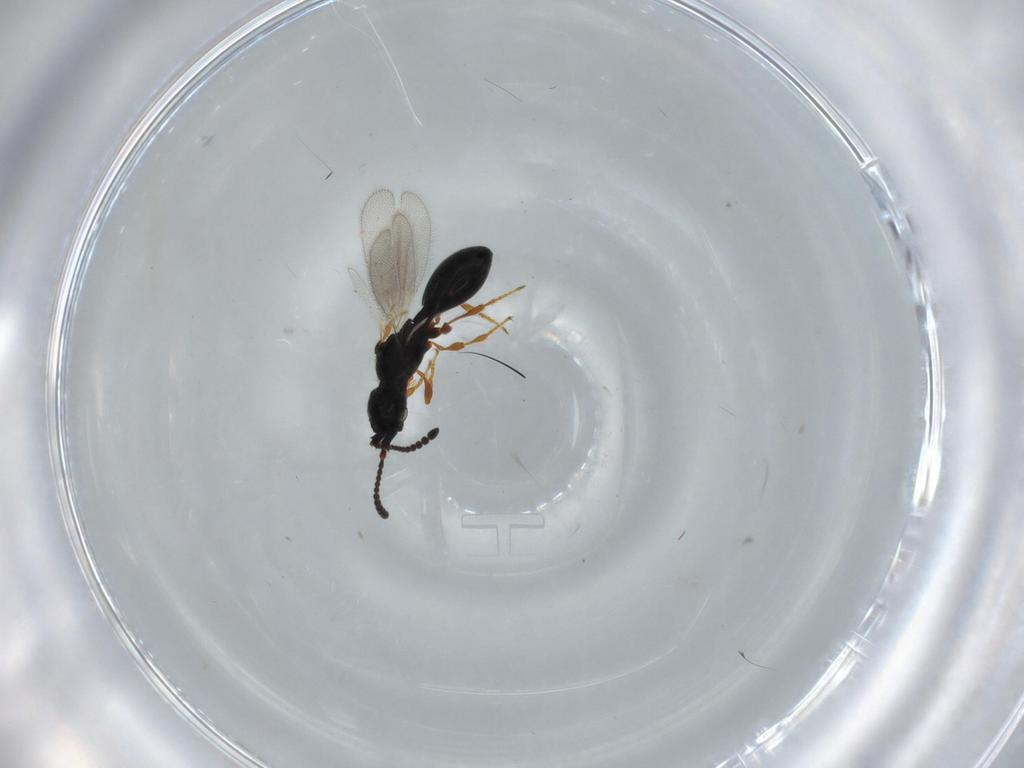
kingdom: Animalia
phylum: Arthropoda
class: Insecta
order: Hymenoptera
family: Diapriidae
